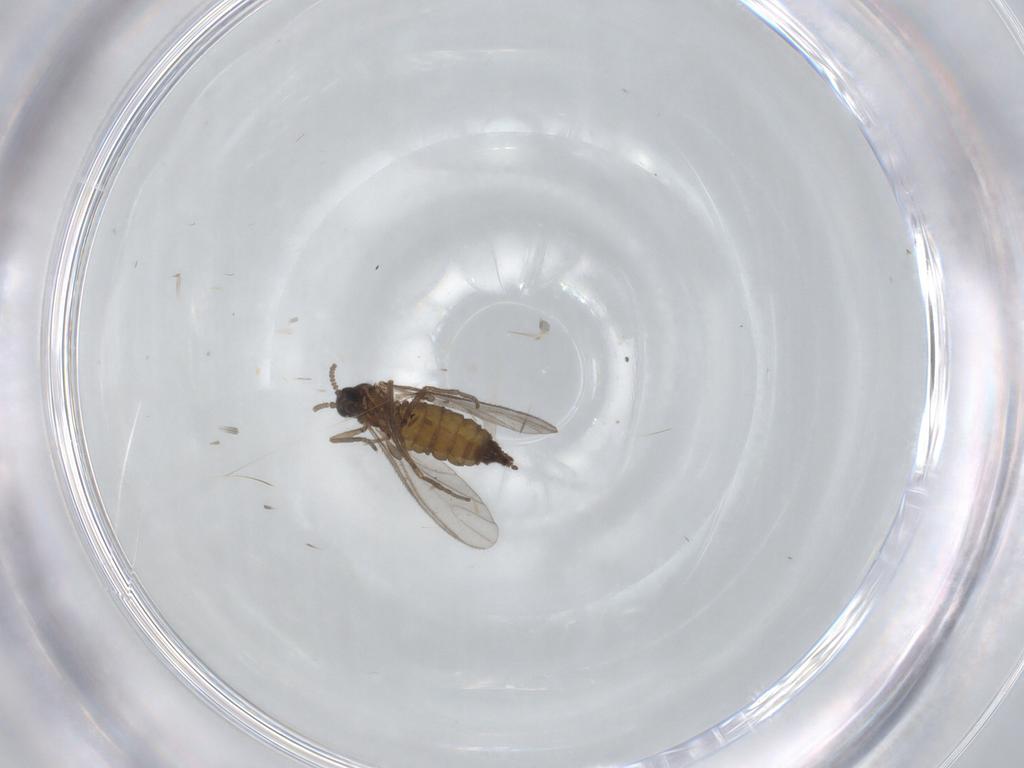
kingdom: Animalia
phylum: Arthropoda
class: Insecta
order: Diptera
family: Sciaridae
